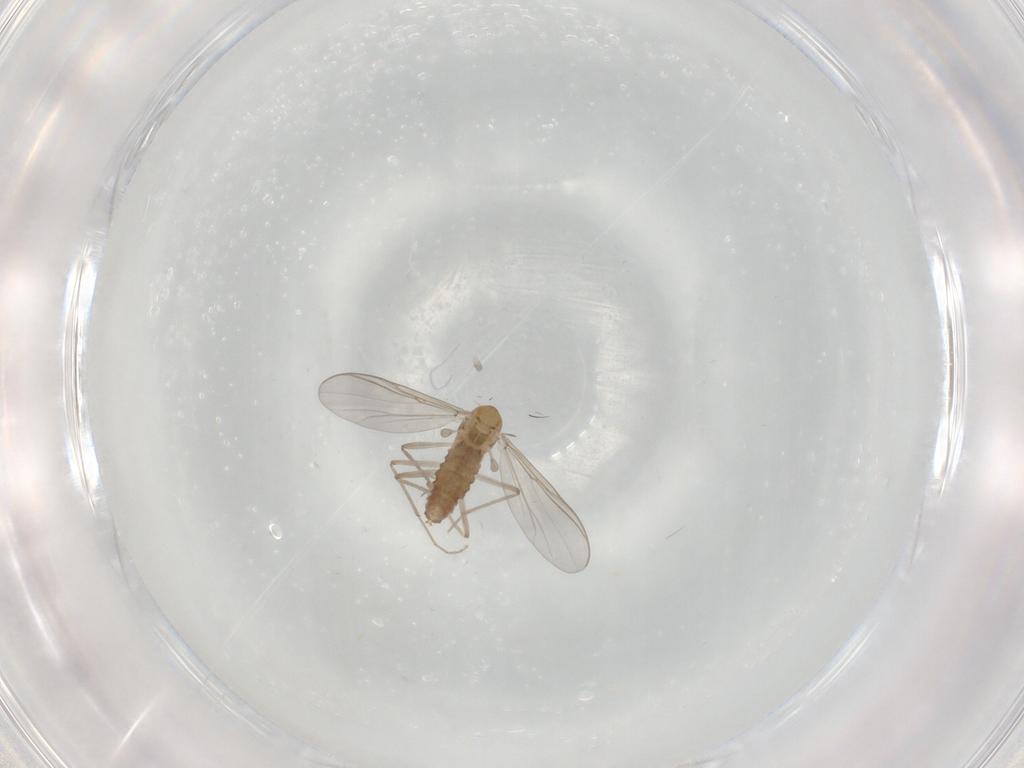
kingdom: Animalia
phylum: Arthropoda
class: Insecta
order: Diptera
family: Chironomidae
